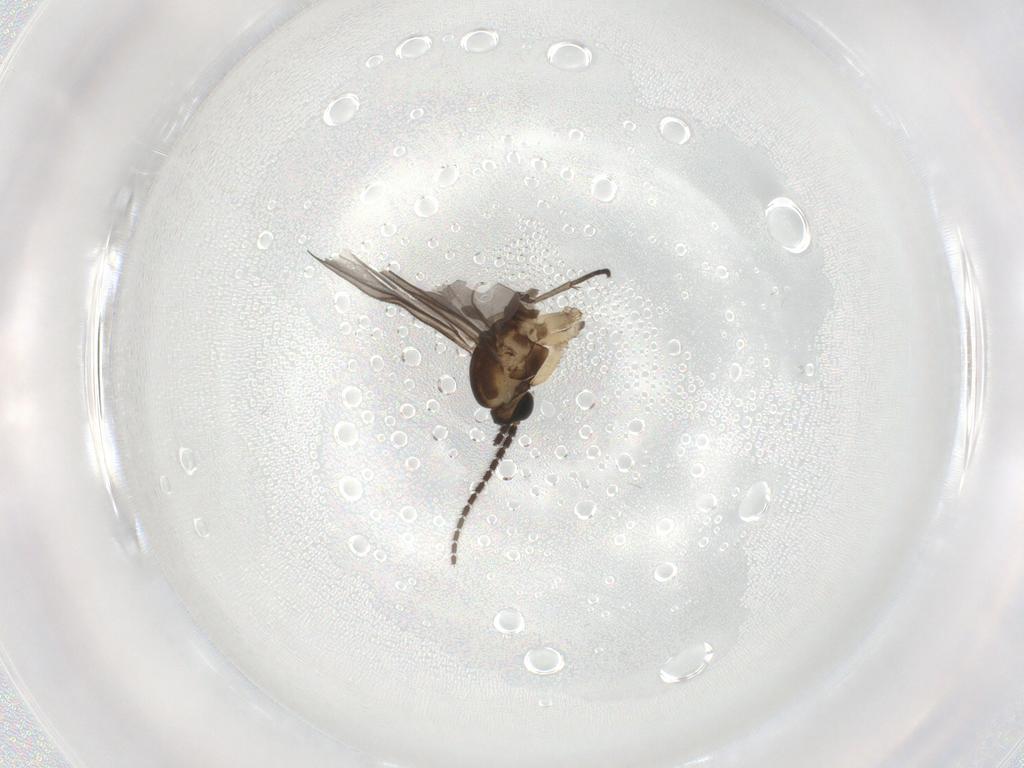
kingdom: Animalia
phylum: Arthropoda
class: Insecta
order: Diptera
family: Sciaridae
